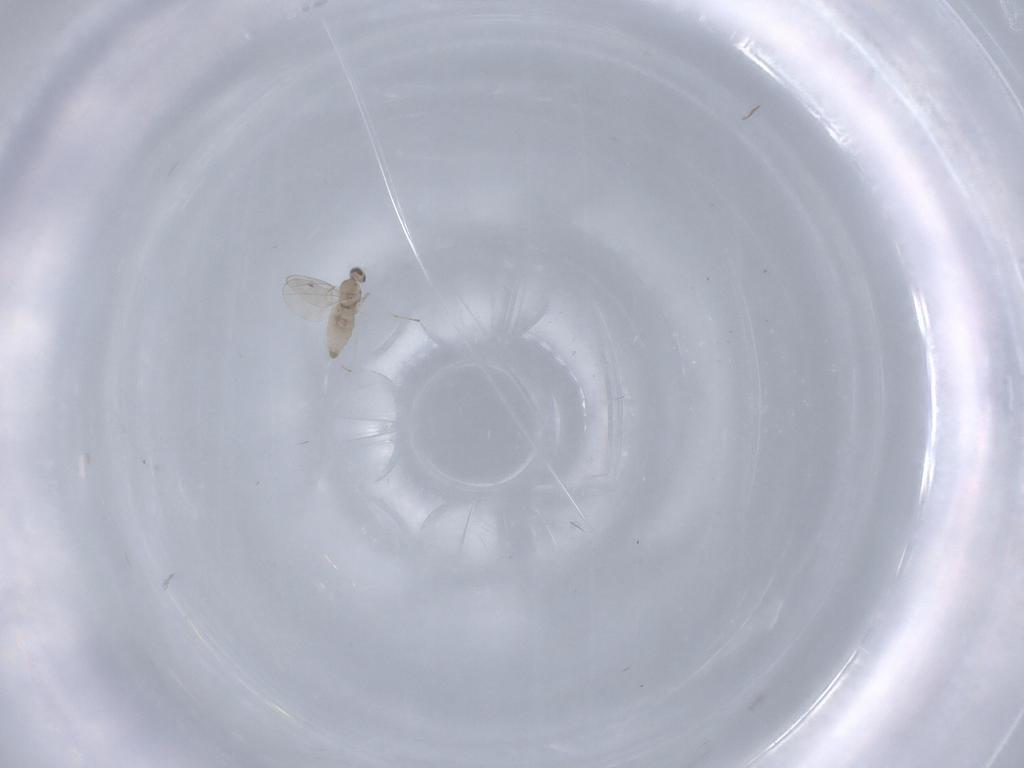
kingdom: Animalia
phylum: Arthropoda
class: Insecta
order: Diptera
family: Cecidomyiidae
